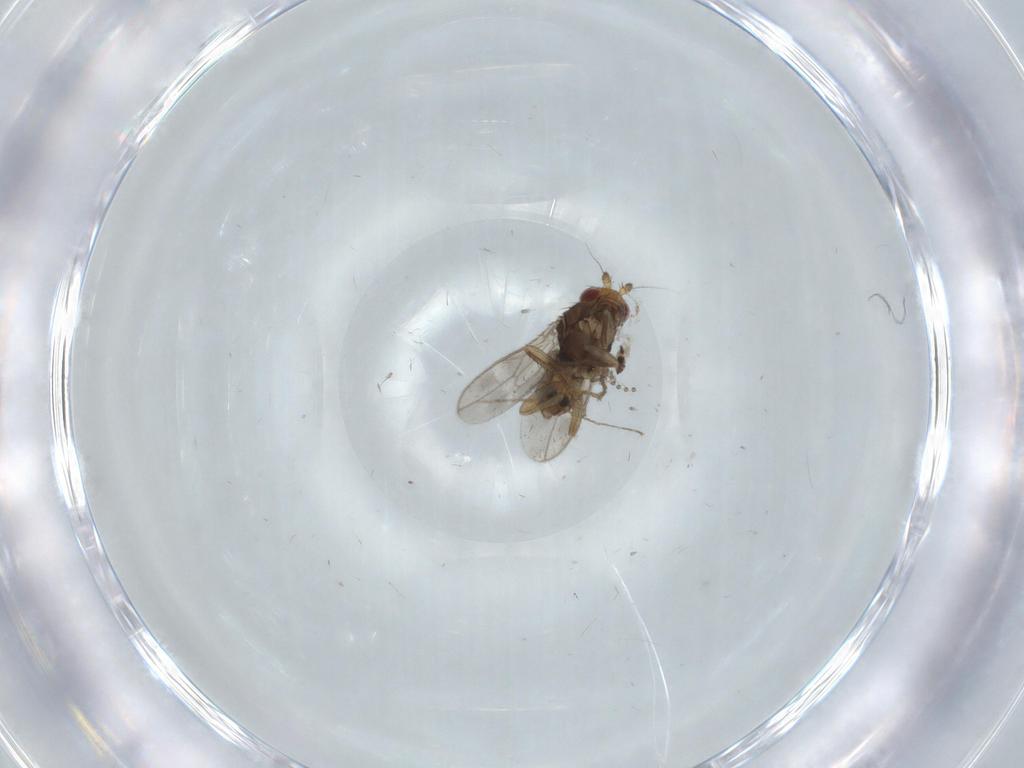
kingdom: Animalia
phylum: Arthropoda
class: Insecta
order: Diptera
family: Sphaeroceridae
